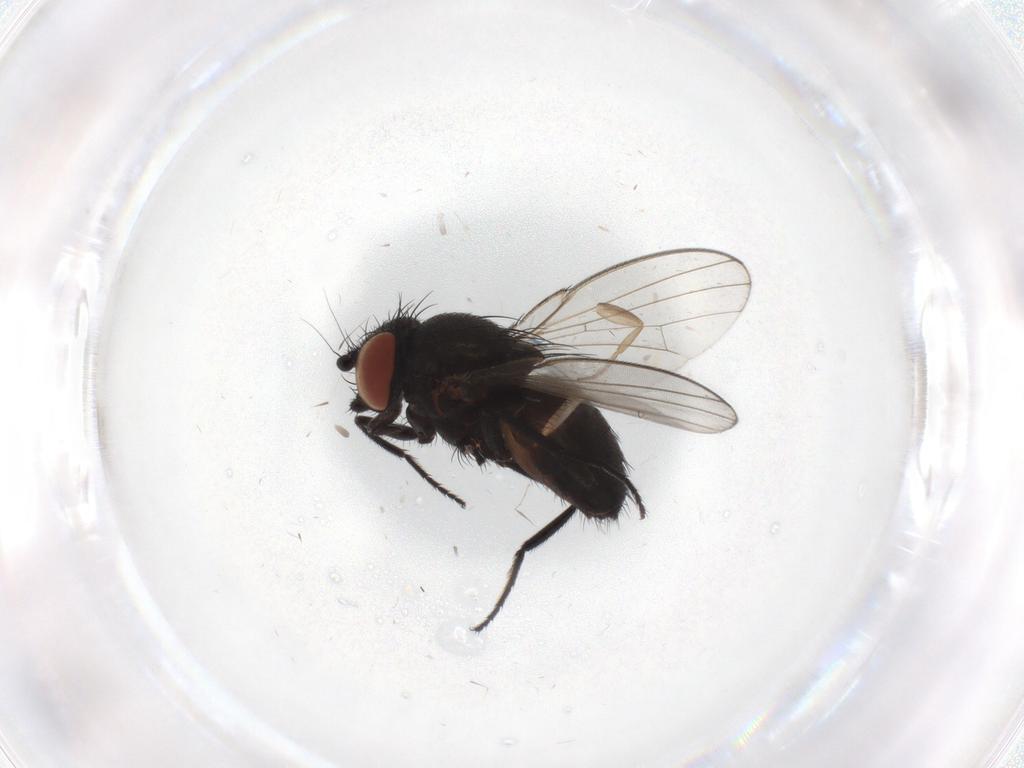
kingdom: Animalia
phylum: Arthropoda
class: Insecta
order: Diptera
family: Milichiidae
